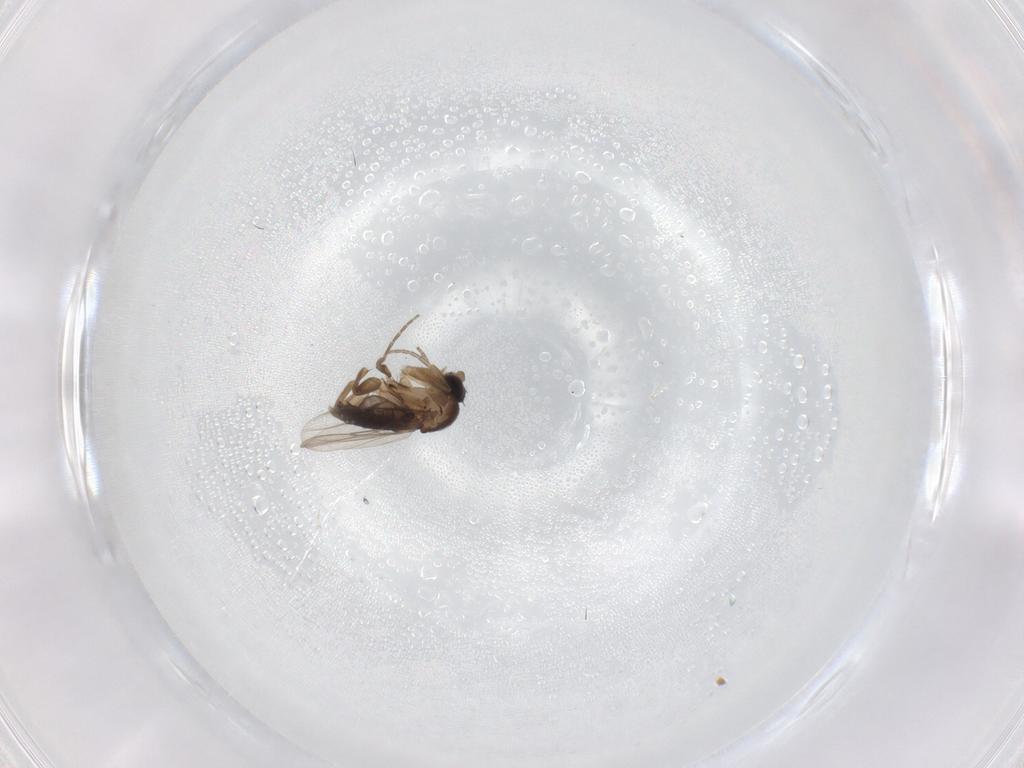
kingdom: Animalia
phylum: Arthropoda
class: Insecta
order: Diptera
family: Phoridae
